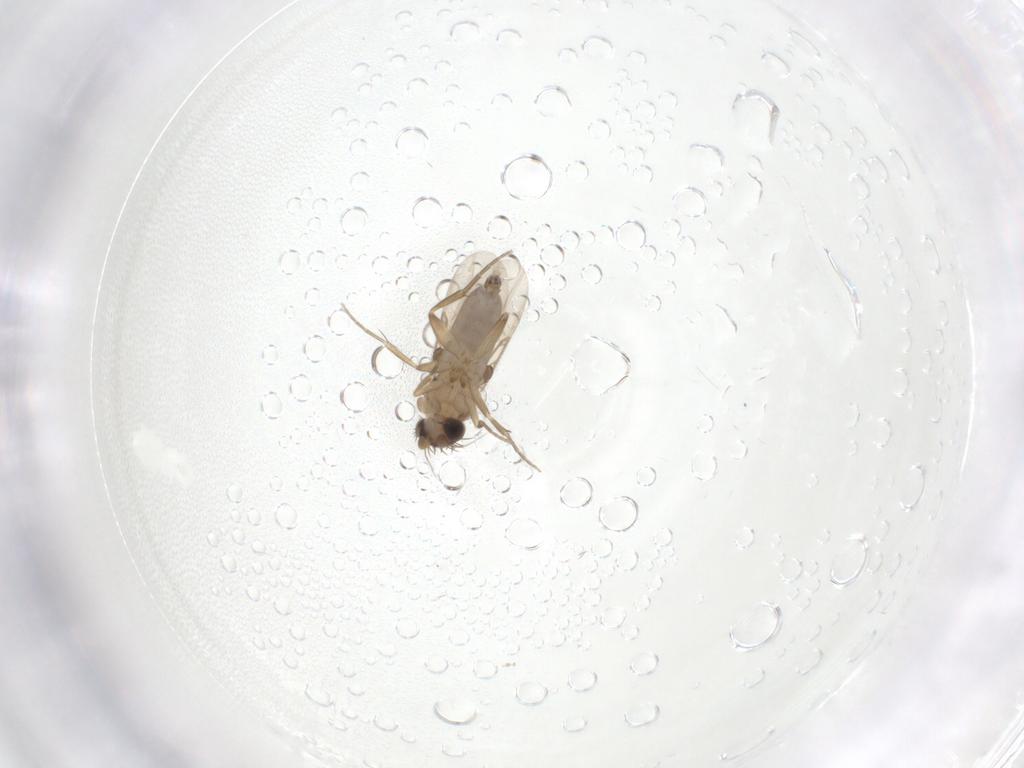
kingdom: Animalia
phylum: Arthropoda
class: Insecta
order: Diptera
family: Phoridae
